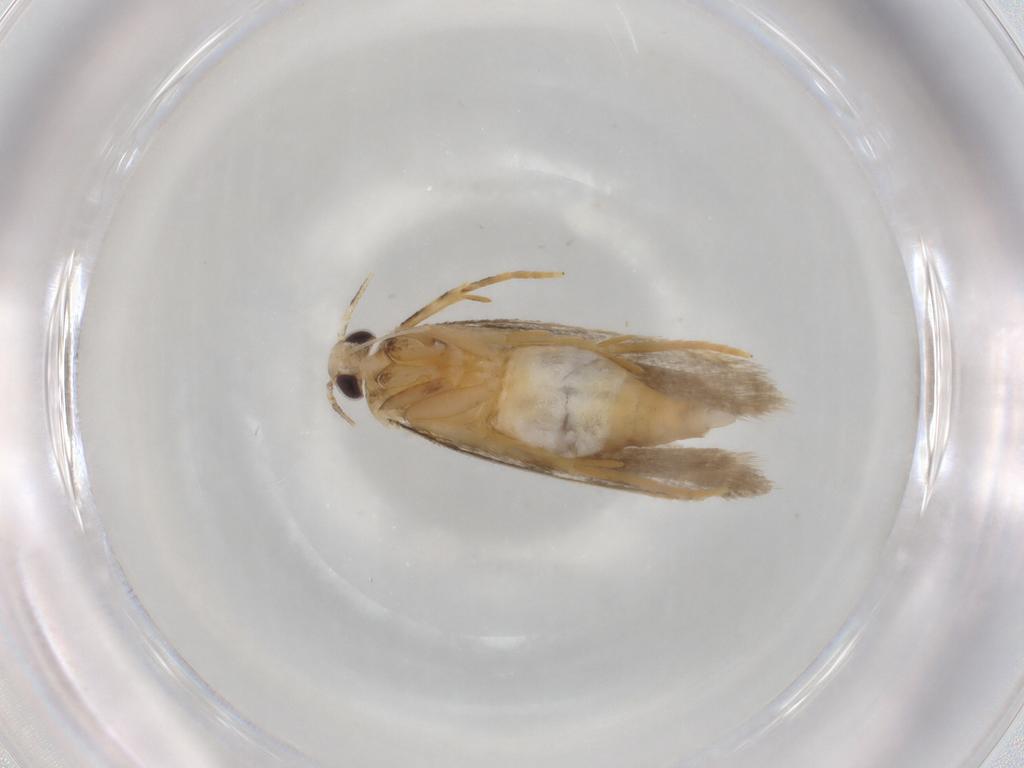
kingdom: Animalia
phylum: Arthropoda
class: Insecta
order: Lepidoptera
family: Autostichidae
